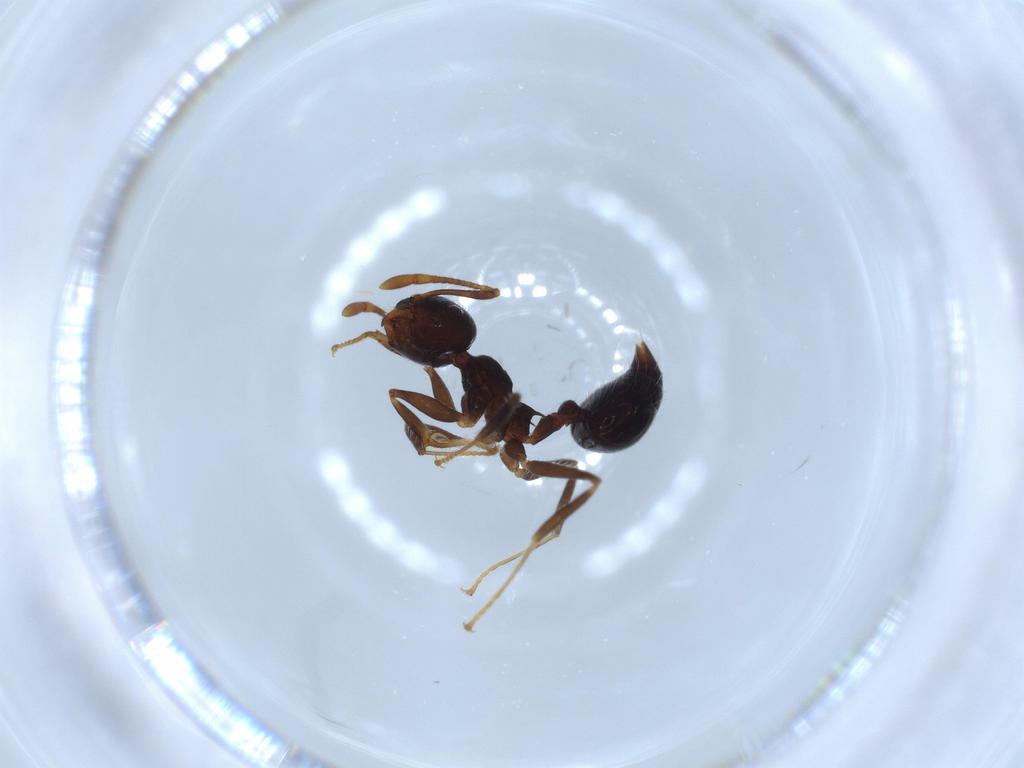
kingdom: Animalia
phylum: Arthropoda
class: Insecta
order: Hymenoptera
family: Formicidae
